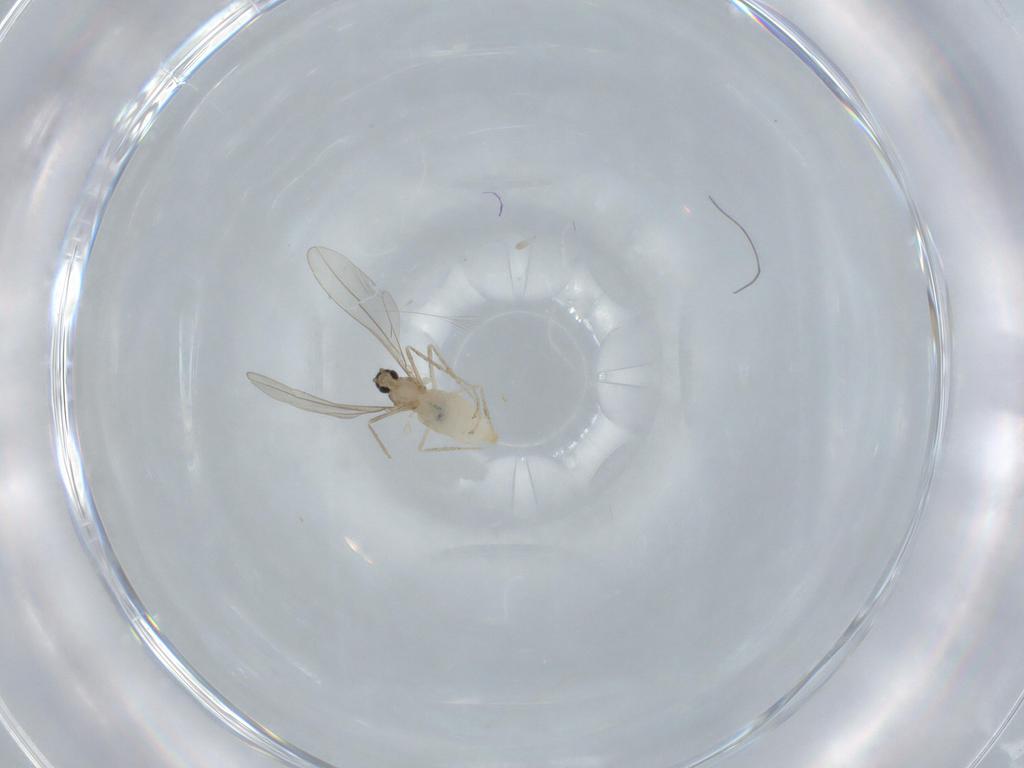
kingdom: Animalia
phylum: Arthropoda
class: Insecta
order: Diptera
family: Cecidomyiidae
